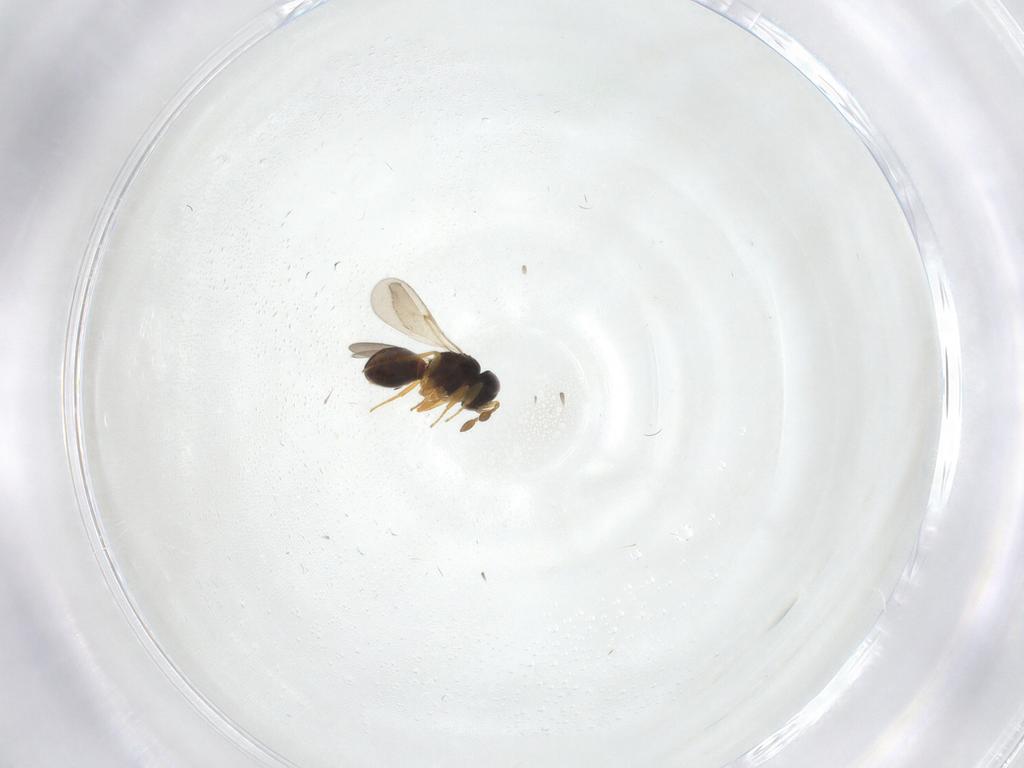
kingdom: Animalia
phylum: Arthropoda
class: Insecta
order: Hymenoptera
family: Scelionidae
